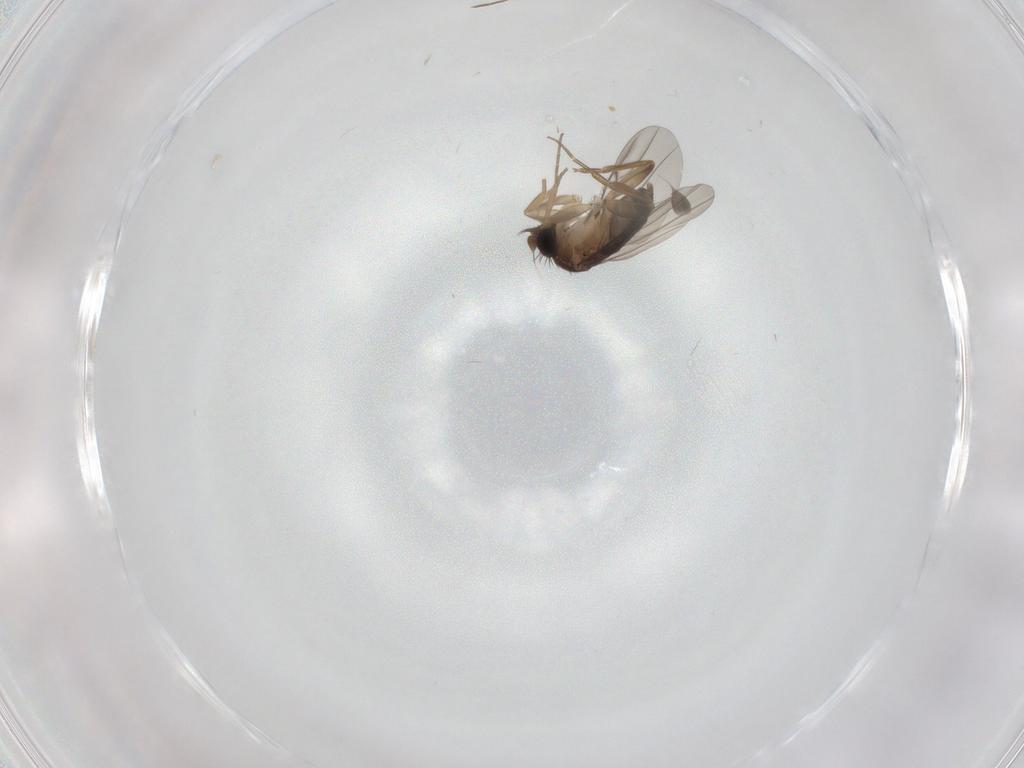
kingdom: Animalia
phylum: Arthropoda
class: Insecta
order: Diptera
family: Phoridae
